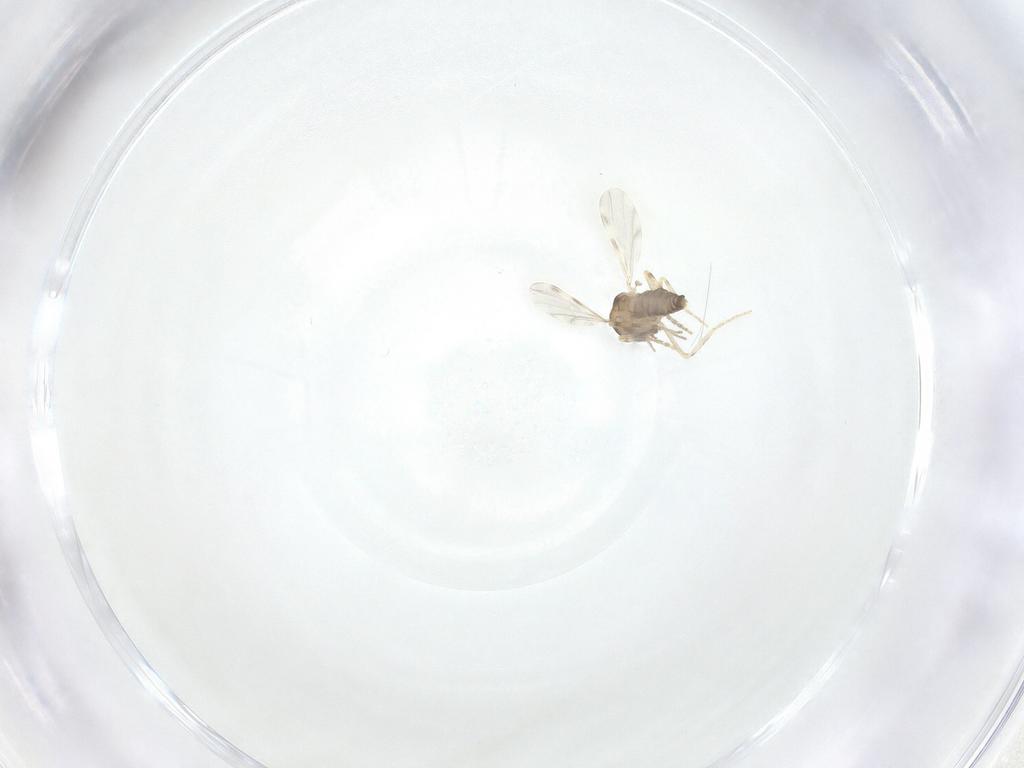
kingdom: Animalia
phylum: Arthropoda
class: Insecta
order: Diptera
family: Chironomidae
